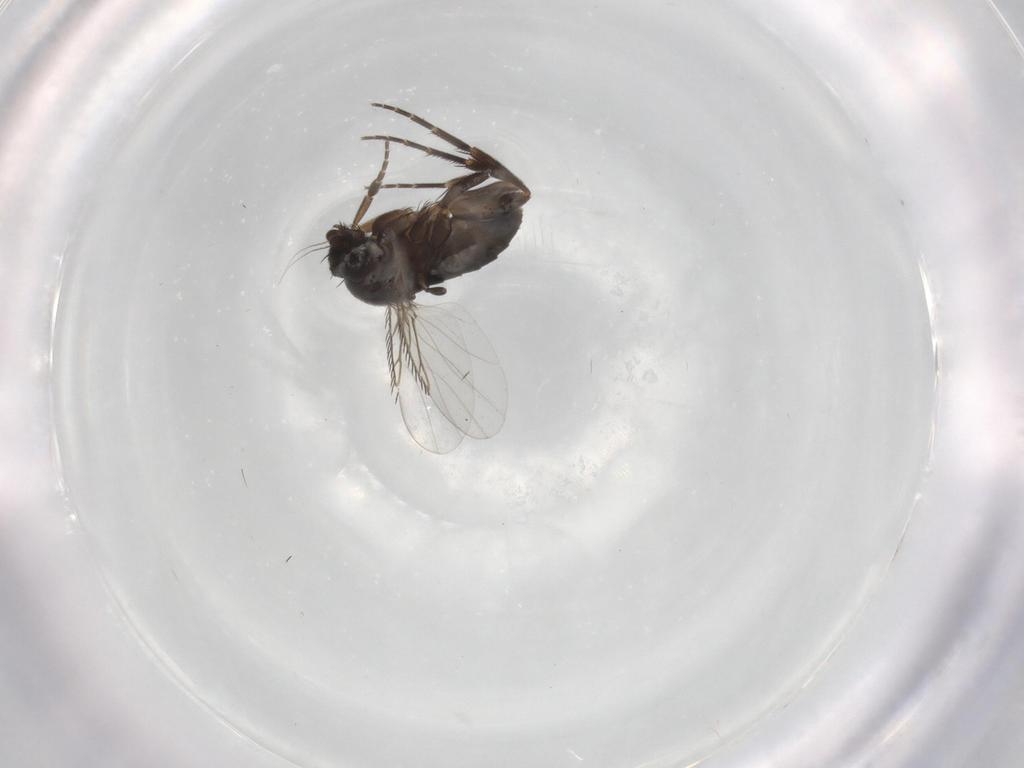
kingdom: Animalia
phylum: Arthropoda
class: Insecta
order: Diptera
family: Phoridae
